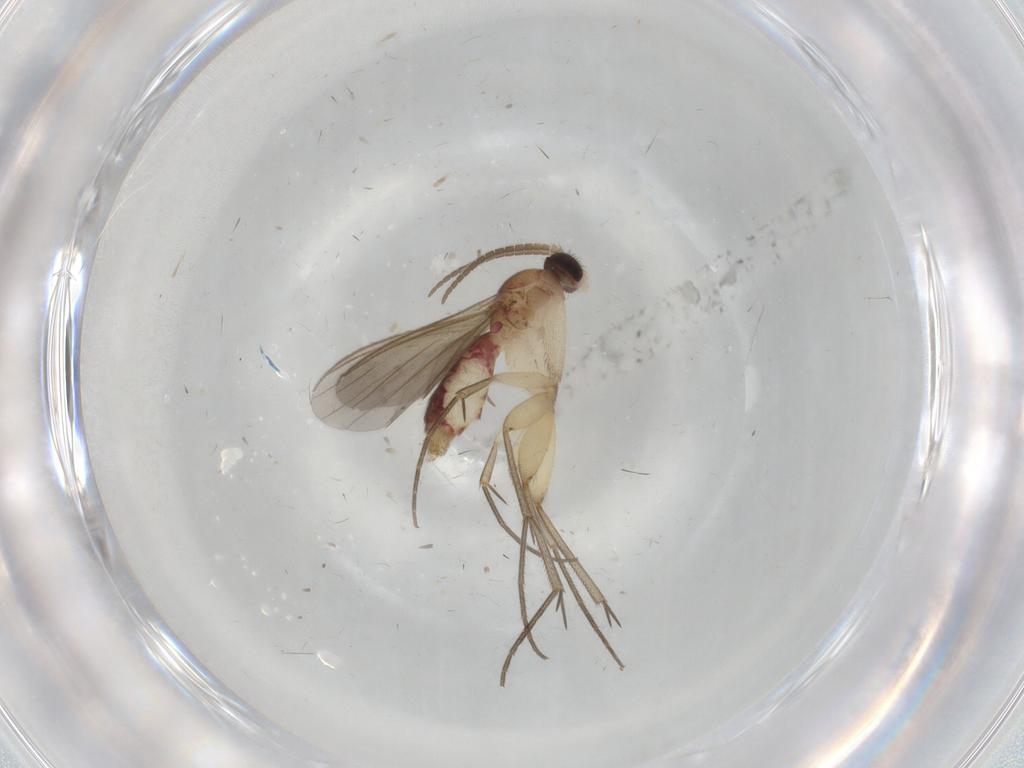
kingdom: Animalia
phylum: Arthropoda
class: Insecta
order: Diptera
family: Mycetophilidae
